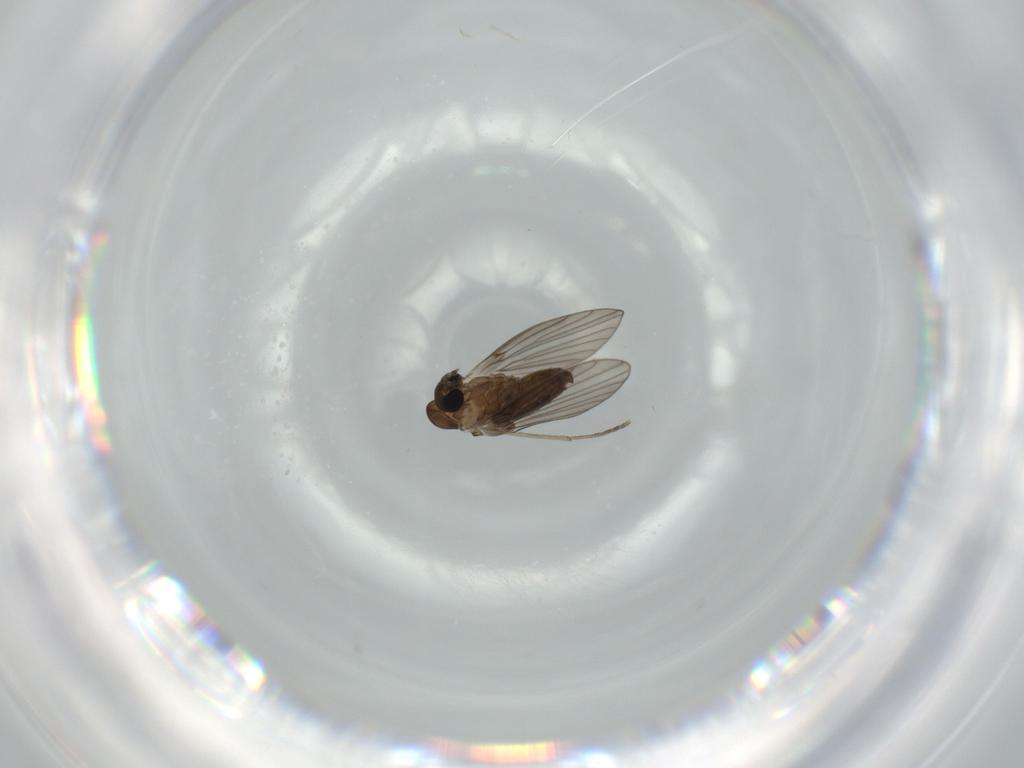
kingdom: Animalia
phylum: Arthropoda
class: Insecta
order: Diptera
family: Psychodidae
